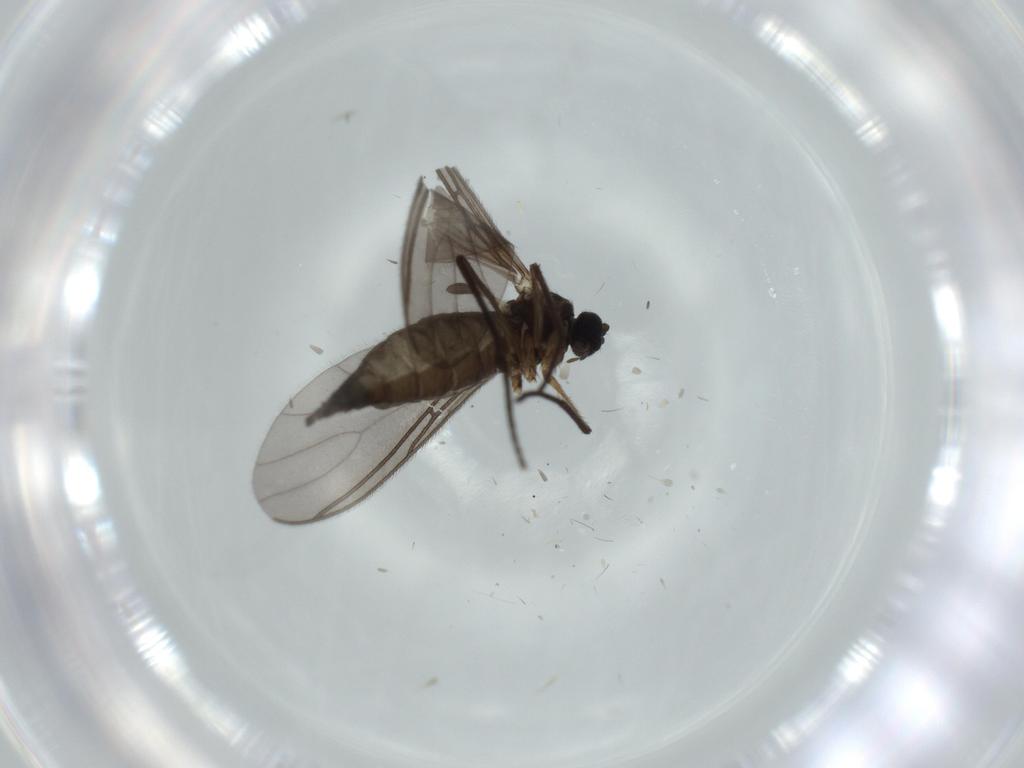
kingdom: Animalia
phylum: Arthropoda
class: Insecta
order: Diptera
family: Sciaridae
